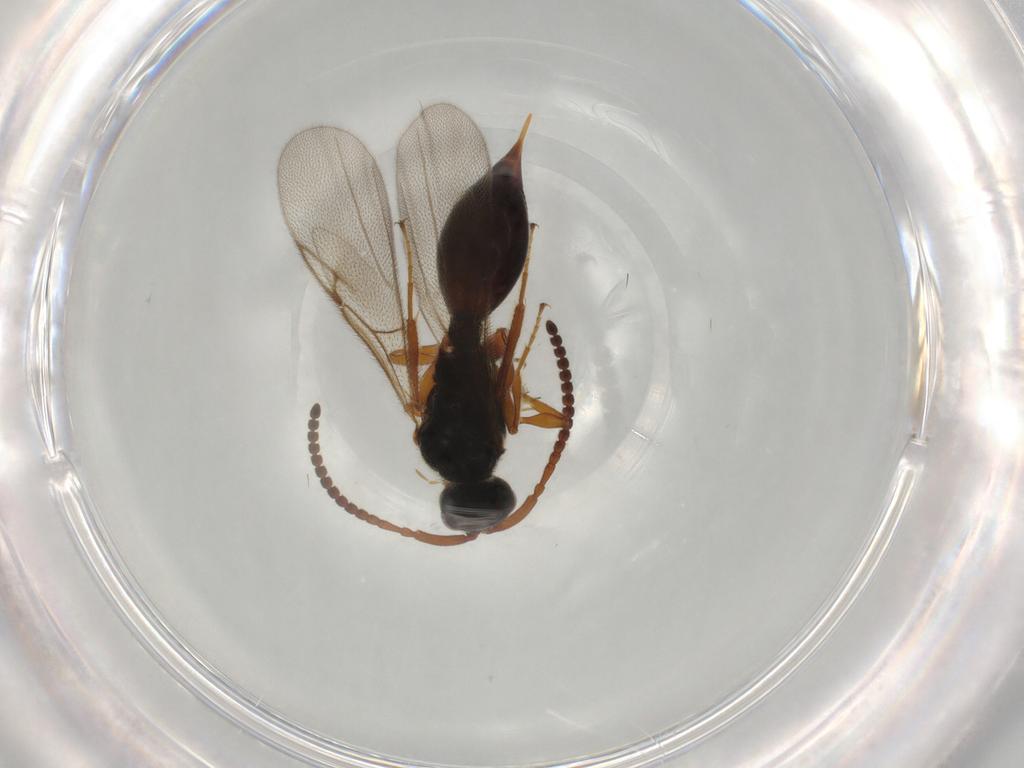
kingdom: Animalia
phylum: Arthropoda
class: Insecta
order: Hymenoptera
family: Diapriidae
